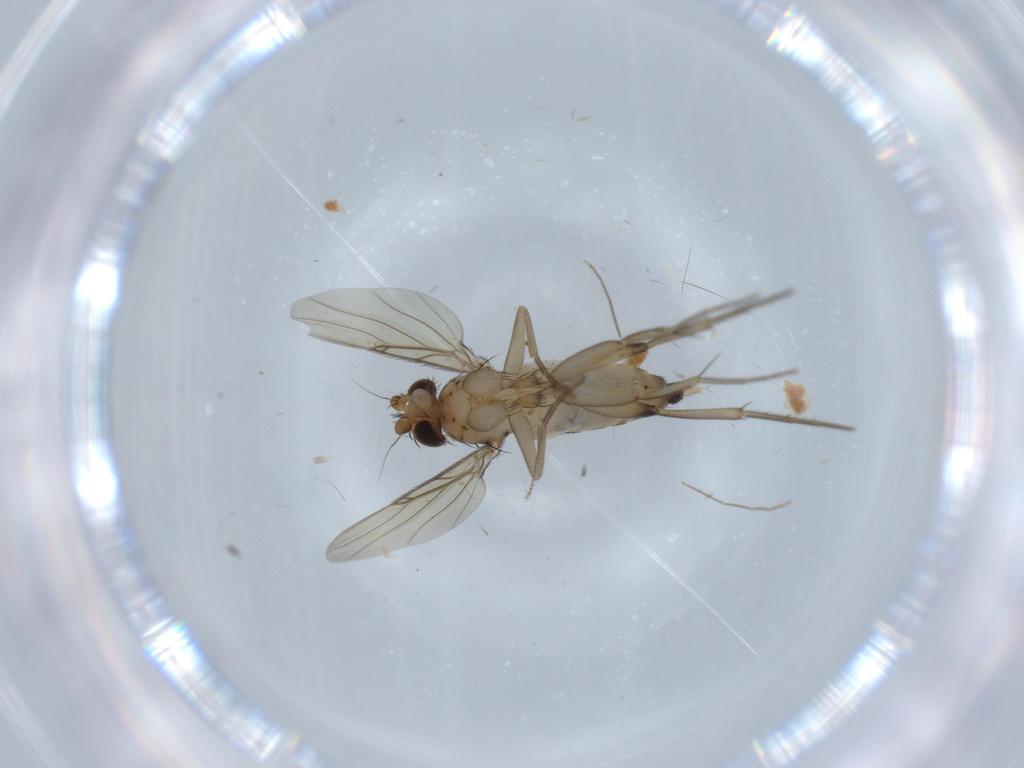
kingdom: Animalia
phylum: Arthropoda
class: Insecta
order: Diptera
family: Phoridae
